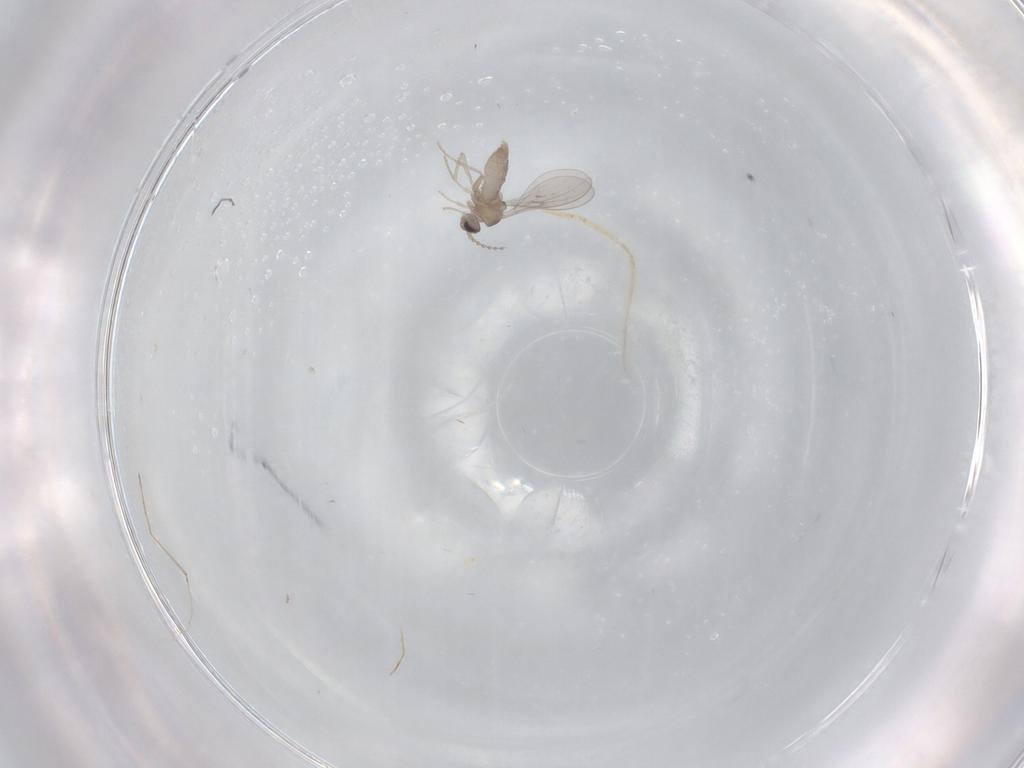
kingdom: Animalia
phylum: Arthropoda
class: Insecta
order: Diptera
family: Cecidomyiidae
